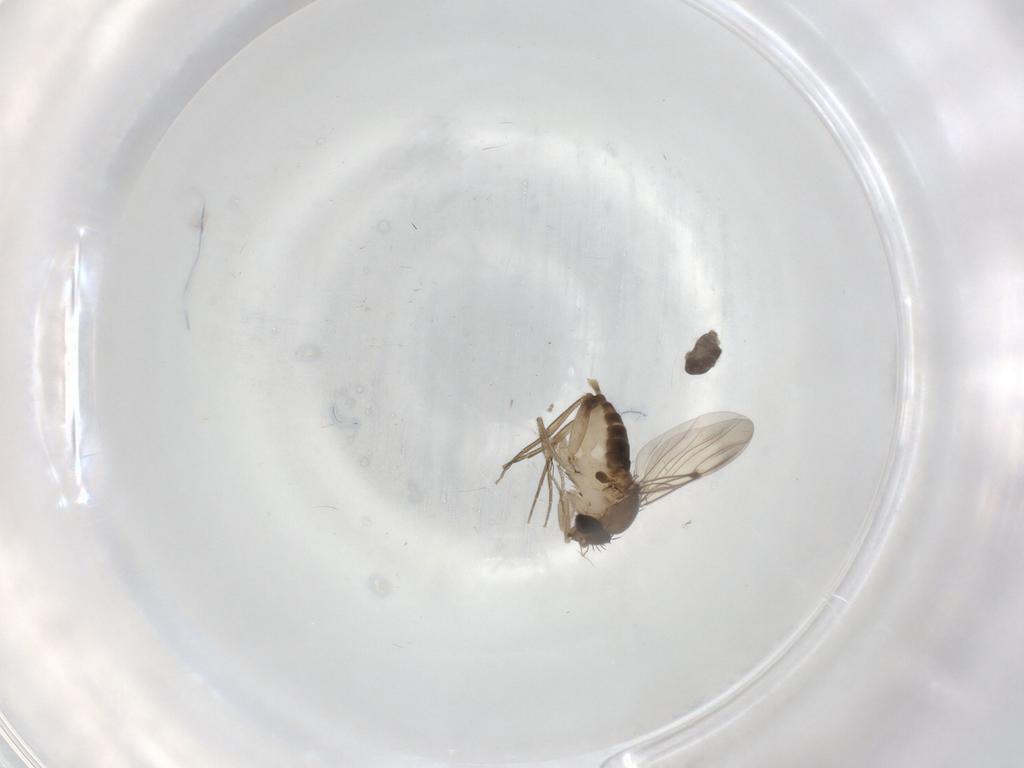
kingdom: Animalia
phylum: Arthropoda
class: Insecta
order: Diptera
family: Phoridae
